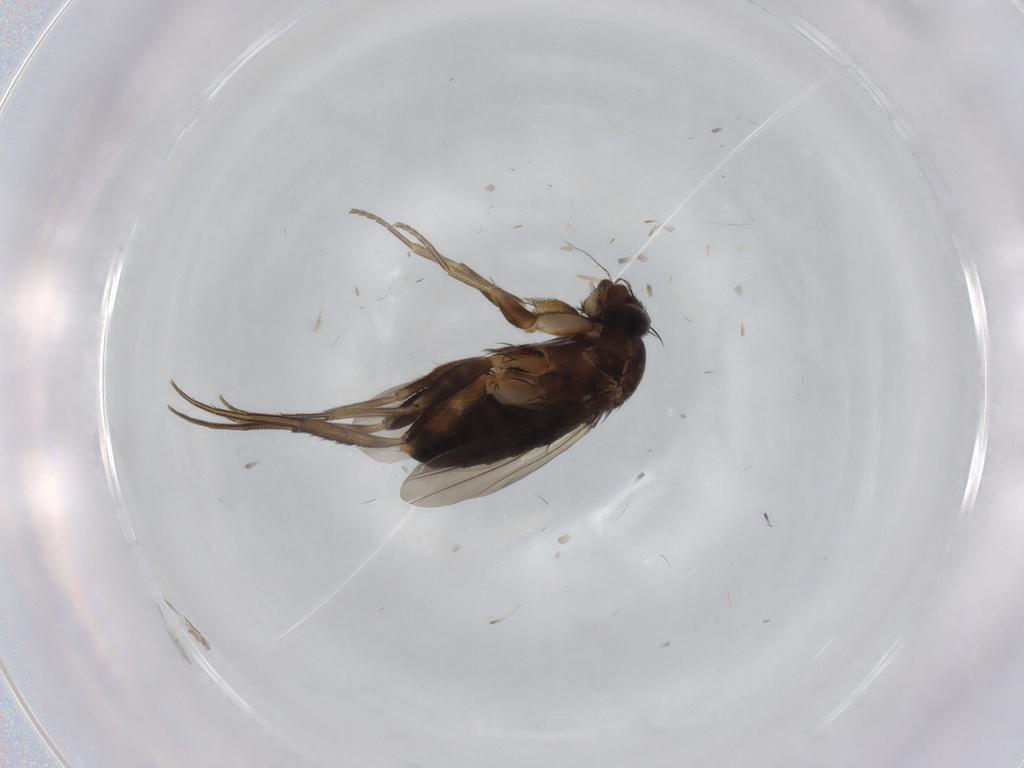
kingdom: Animalia
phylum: Arthropoda
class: Insecta
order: Diptera
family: Phoridae
